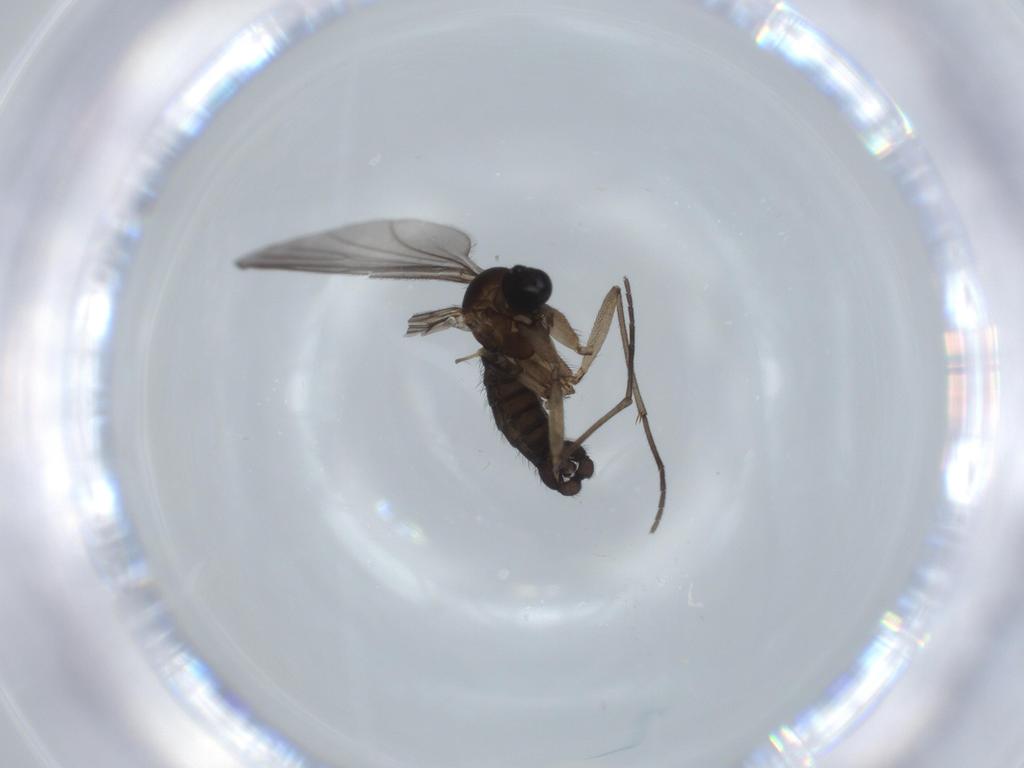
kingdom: Animalia
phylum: Arthropoda
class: Insecta
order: Diptera
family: Sciaridae
